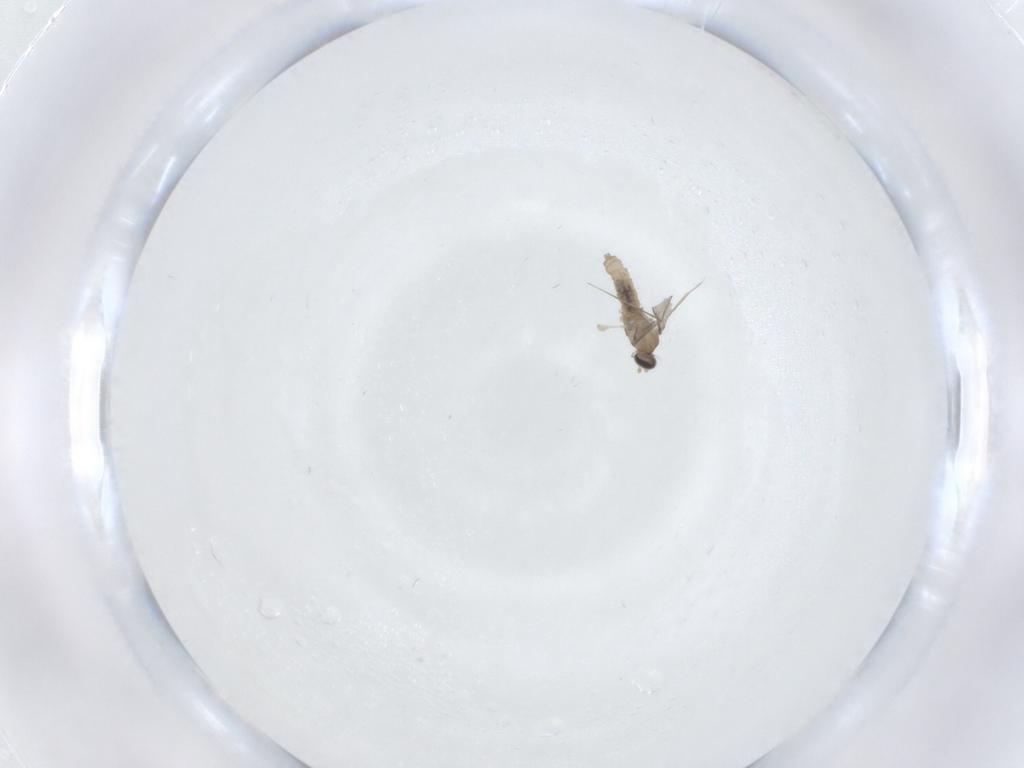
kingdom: Animalia
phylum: Arthropoda
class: Insecta
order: Diptera
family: Chironomidae
